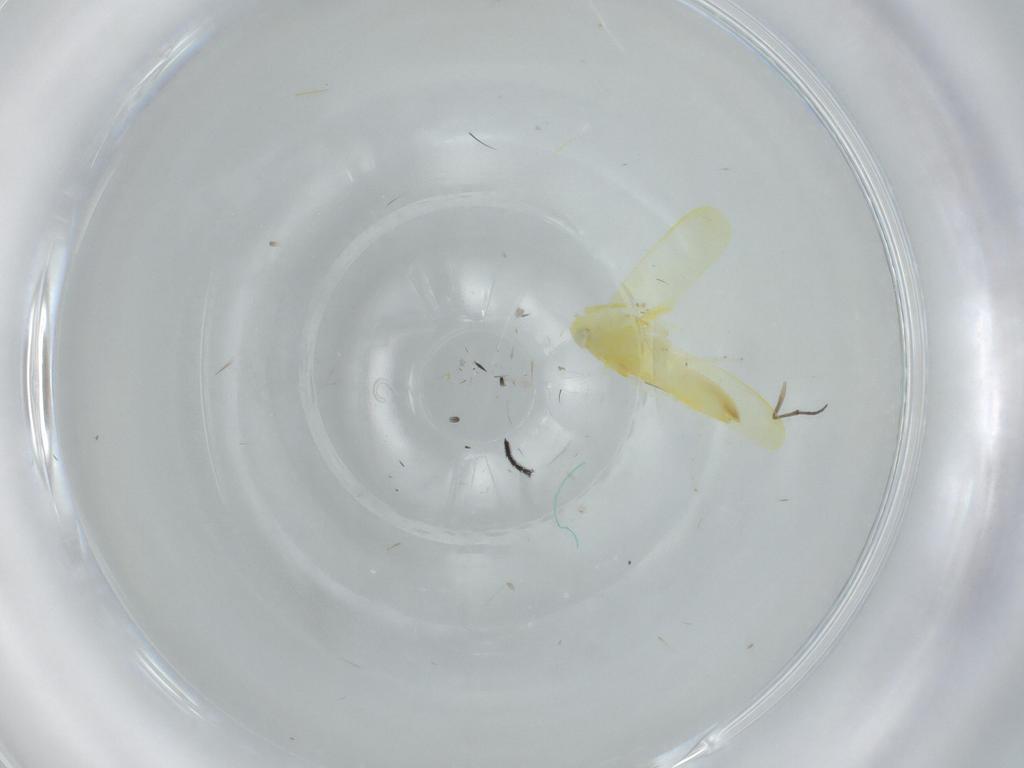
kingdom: Animalia
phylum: Arthropoda
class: Insecta
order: Hemiptera
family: Cicadellidae
